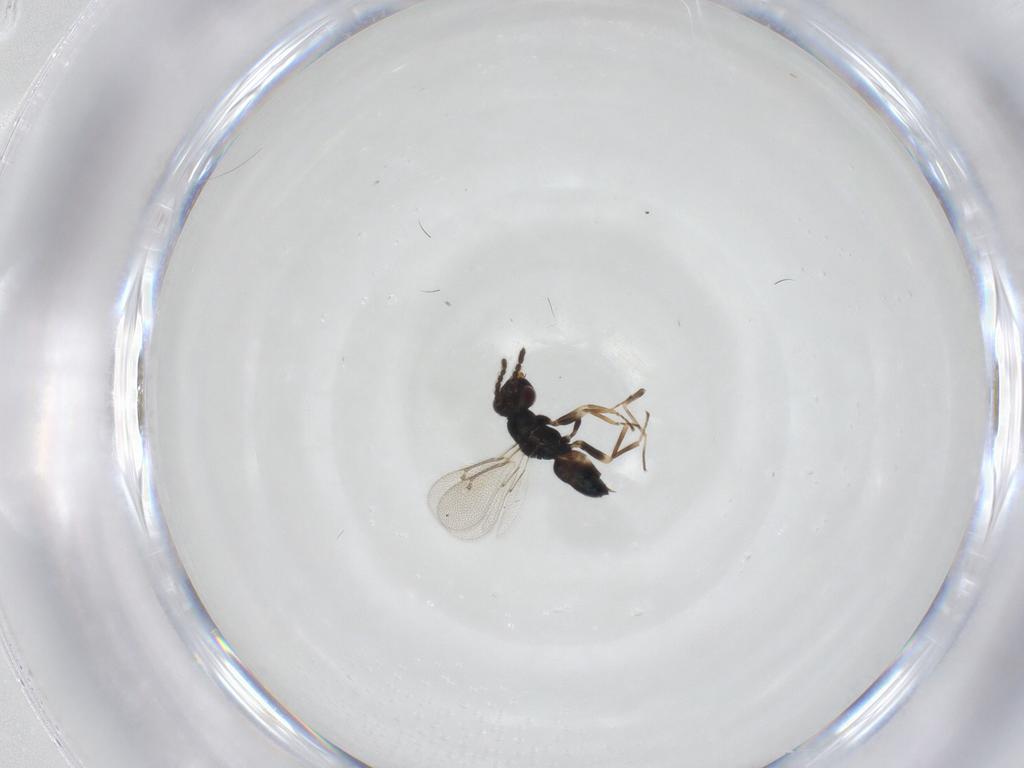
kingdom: Animalia
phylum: Arthropoda
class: Insecta
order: Hymenoptera
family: Eulophidae
